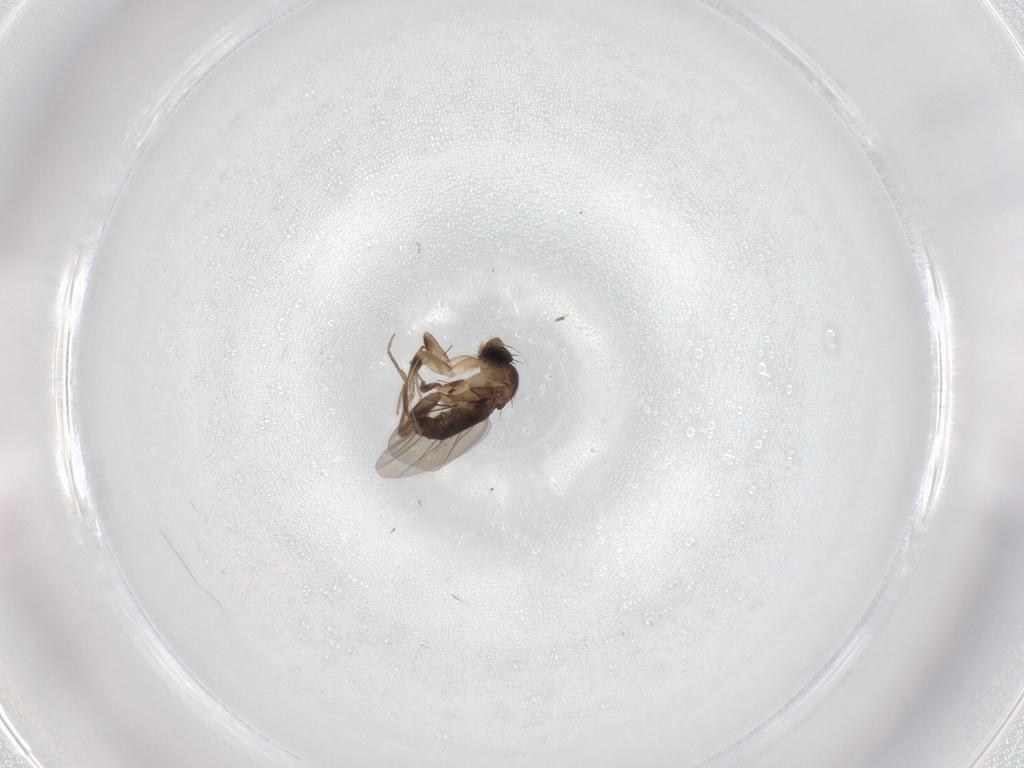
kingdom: Animalia
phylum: Arthropoda
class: Insecta
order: Diptera
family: Phoridae
